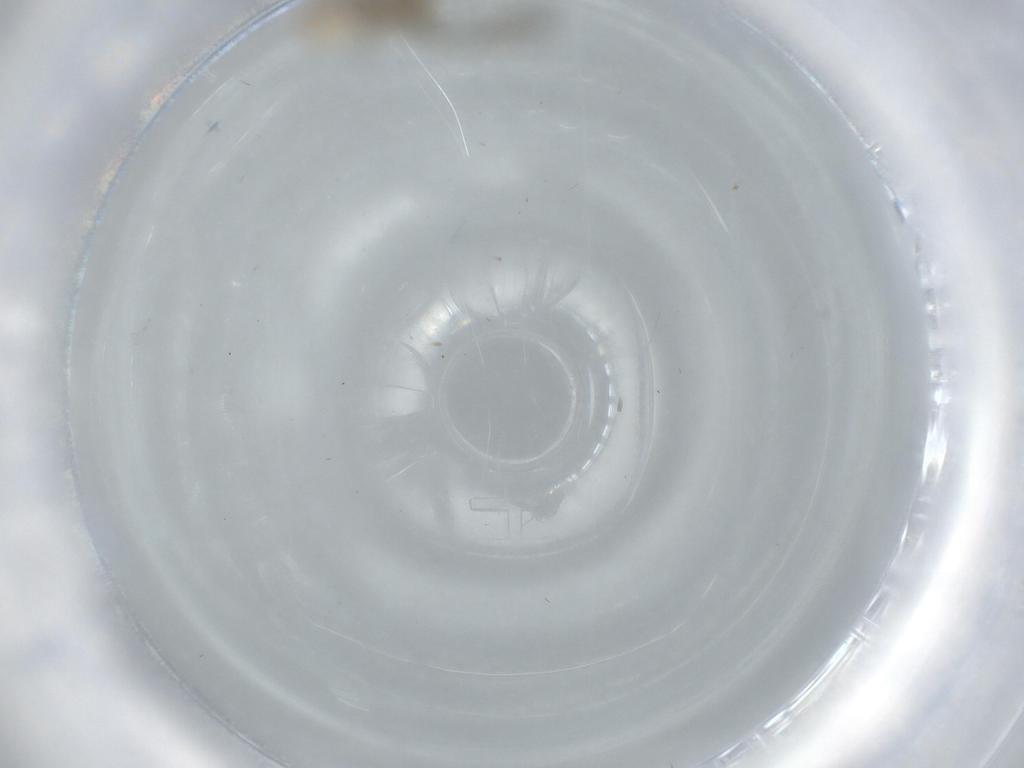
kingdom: Animalia
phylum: Arthropoda
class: Insecta
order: Psocodea
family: Lachesillidae
